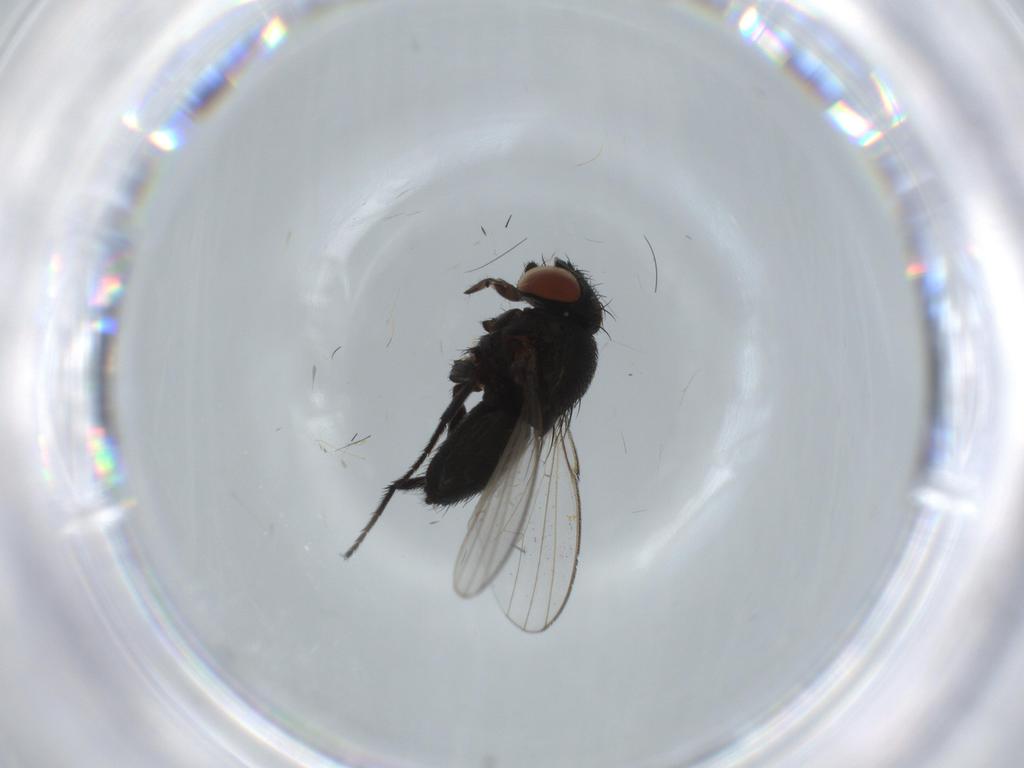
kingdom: Animalia
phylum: Arthropoda
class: Insecta
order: Diptera
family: Milichiidae
